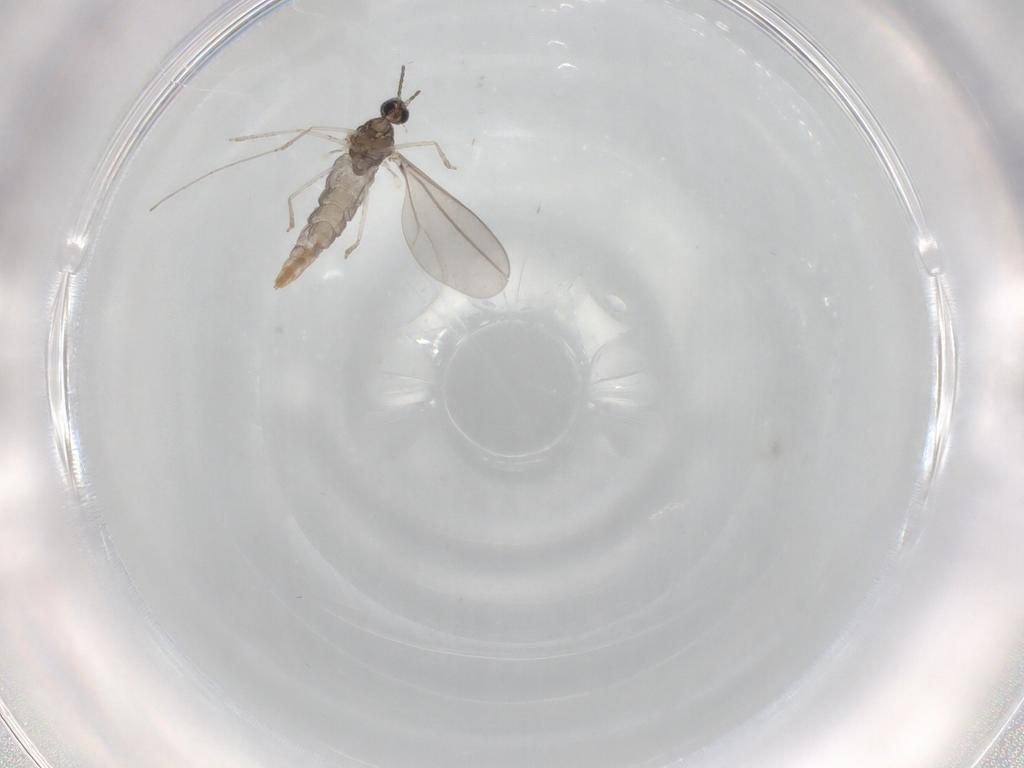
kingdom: Animalia
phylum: Arthropoda
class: Insecta
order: Diptera
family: Cecidomyiidae
